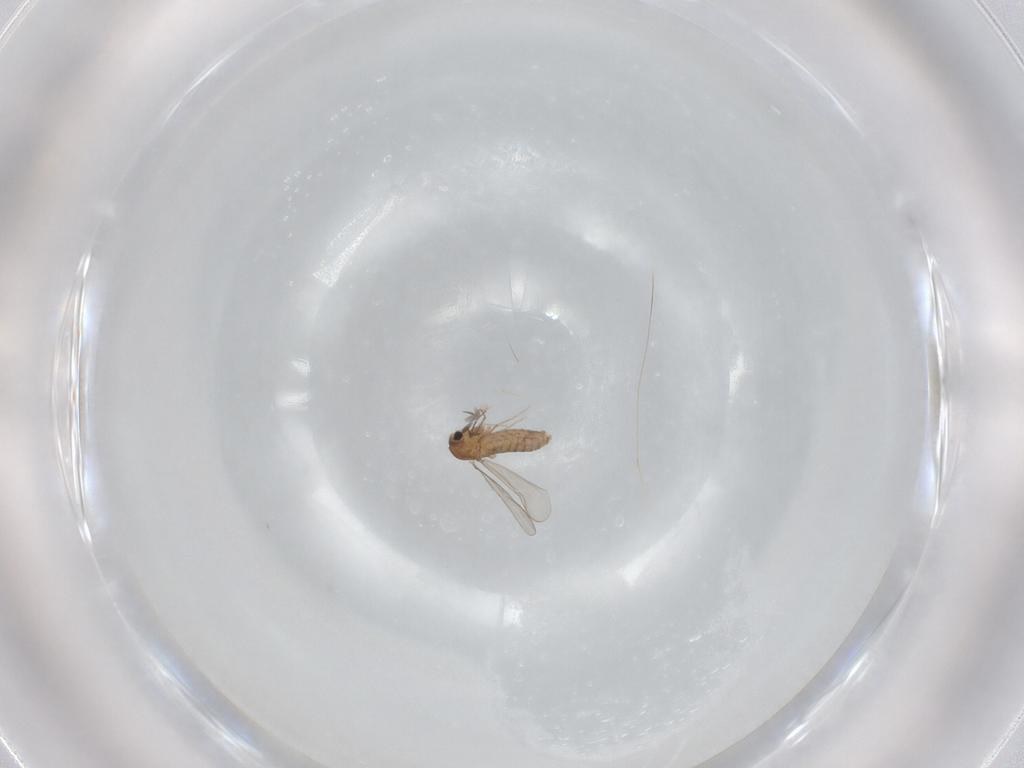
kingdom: Animalia
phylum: Arthropoda
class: Insecta
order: Diptera
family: Chironomidae
